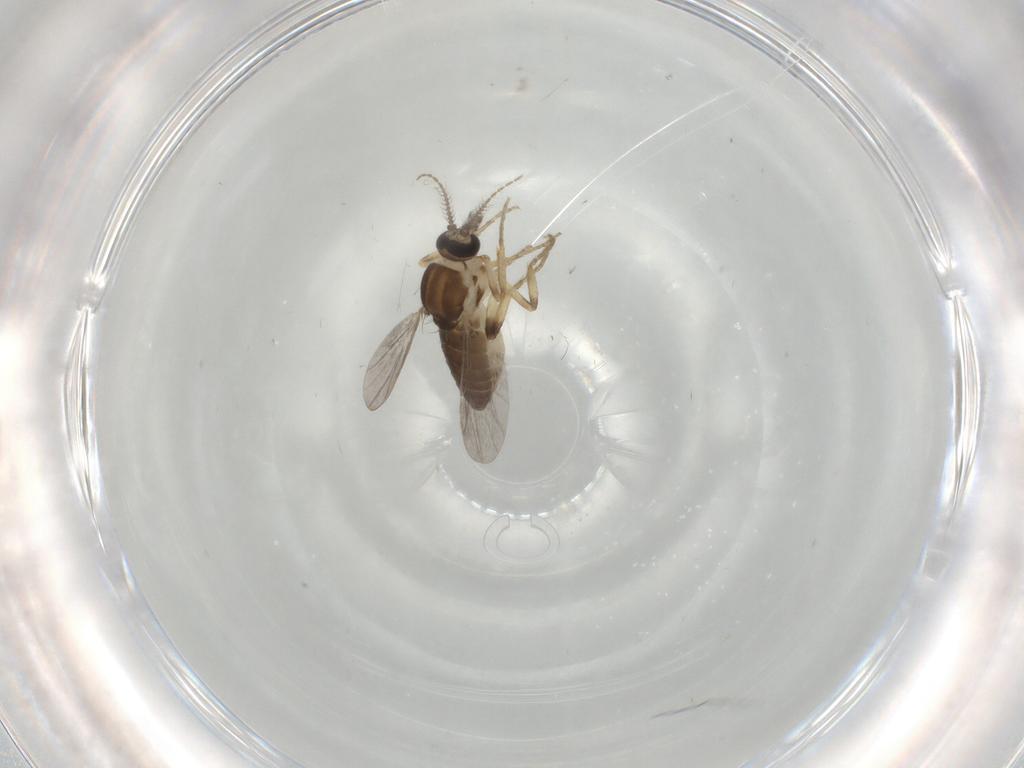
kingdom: Animalia
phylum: Arthropoda
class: Insecta
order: Diptera
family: Ceratopogonidae
